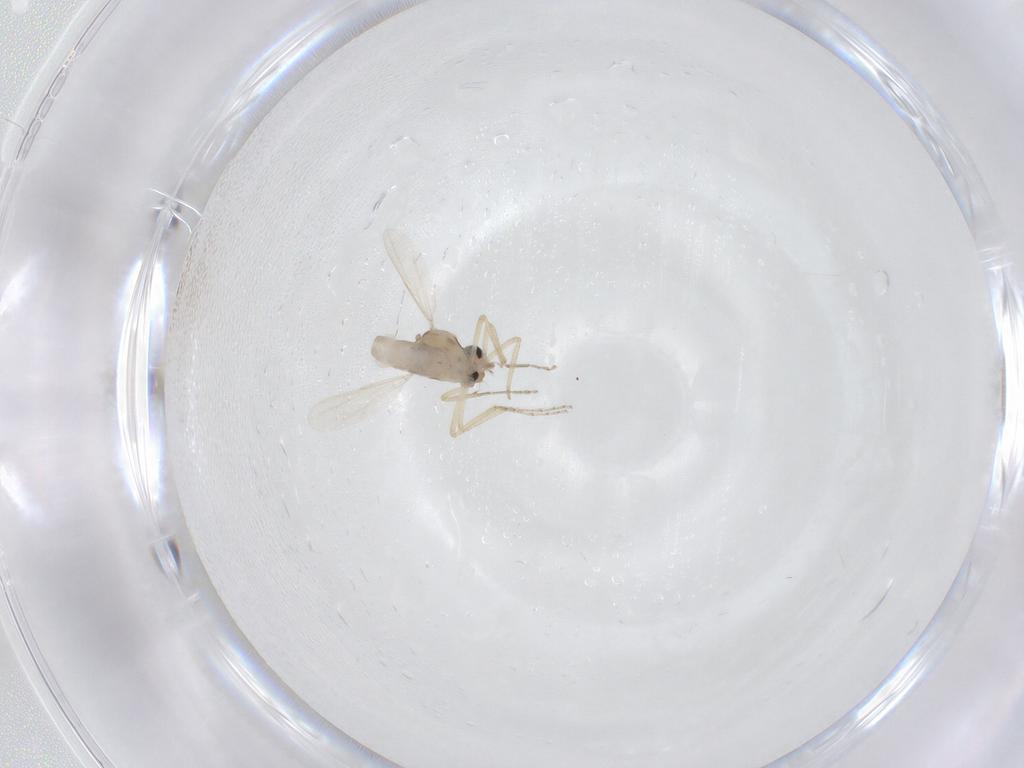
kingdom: Animalia
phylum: Arthropoda
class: Insecta
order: Diptera
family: Ceratopogonidae
